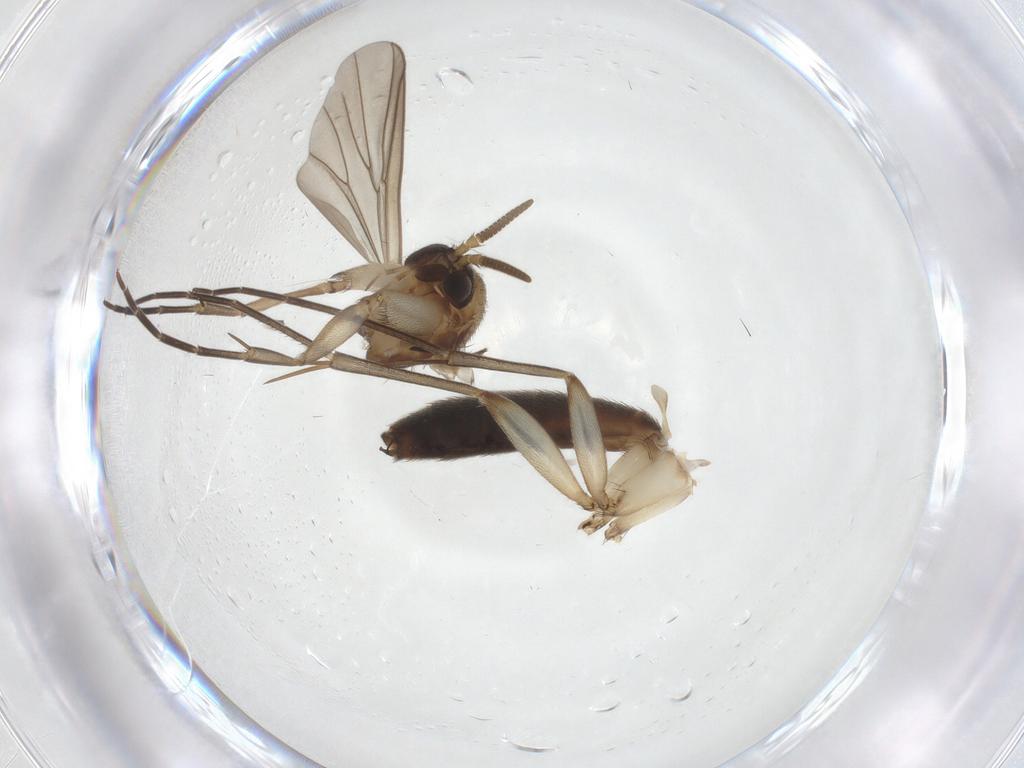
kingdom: Animalia
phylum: Arthropoda
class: Insecta
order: Diptera
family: Mycetophilidae
